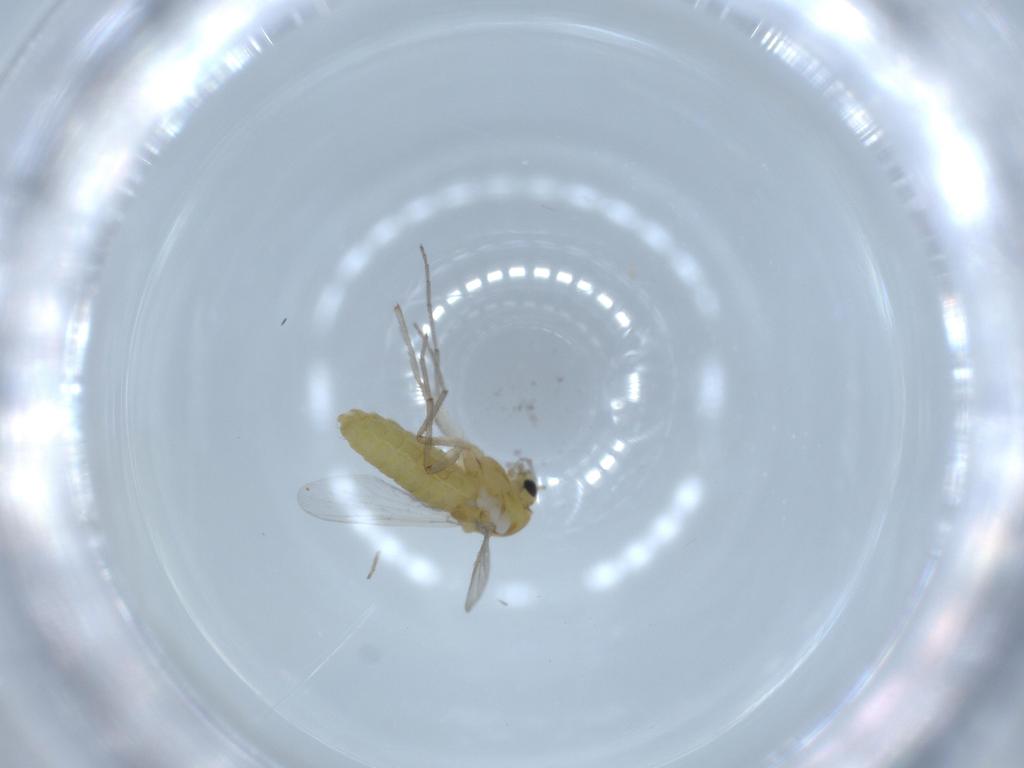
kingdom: Animalia
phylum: Arthropoda
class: Insecta
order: Diptera
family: Chironomidae
